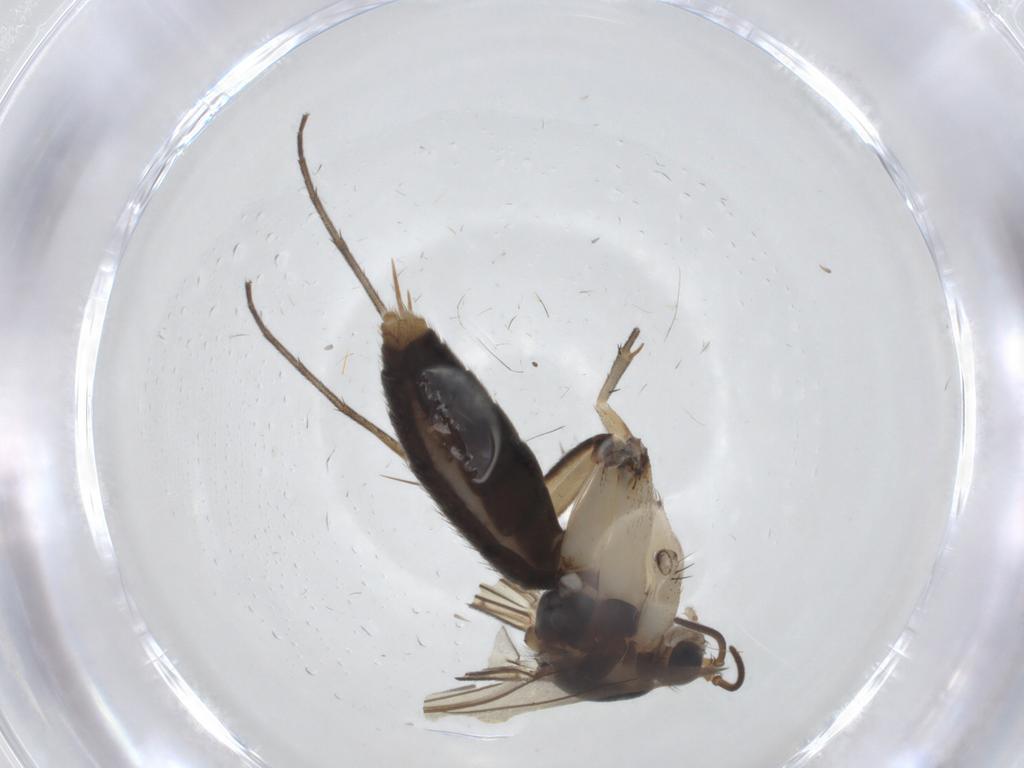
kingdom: Animalia
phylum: Arthropoda
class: Insecta
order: Diptera
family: Mycetophilidae
